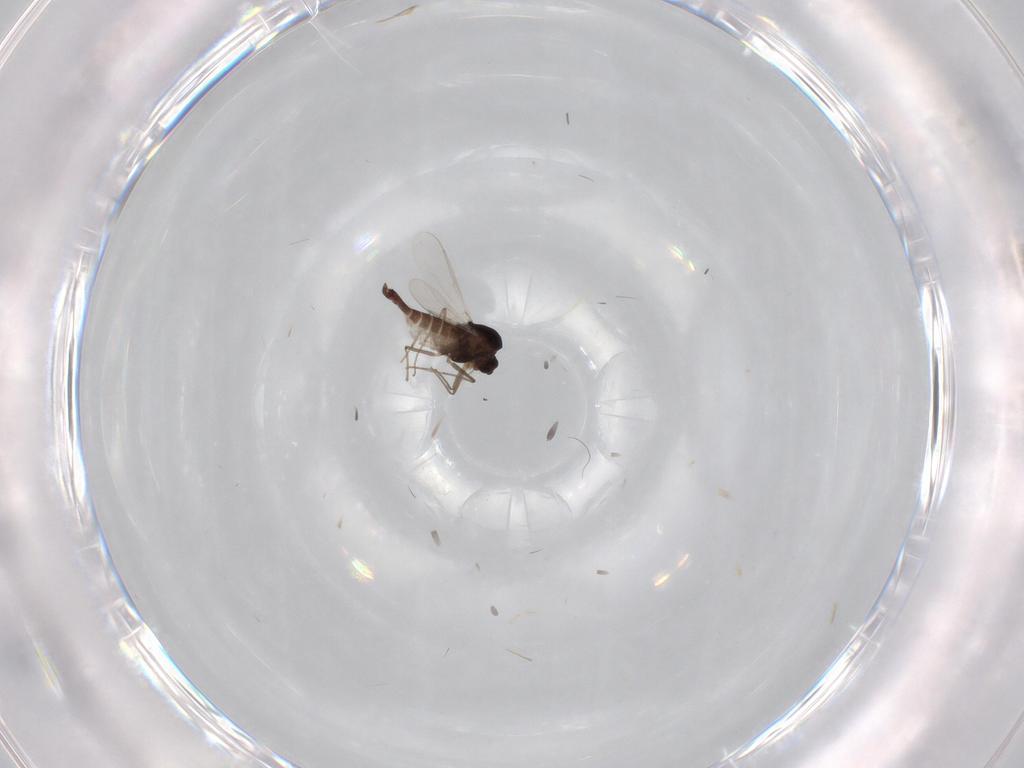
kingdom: Animalia
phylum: Arthropoda
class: Insecta
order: Diptera
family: Chironomidae
